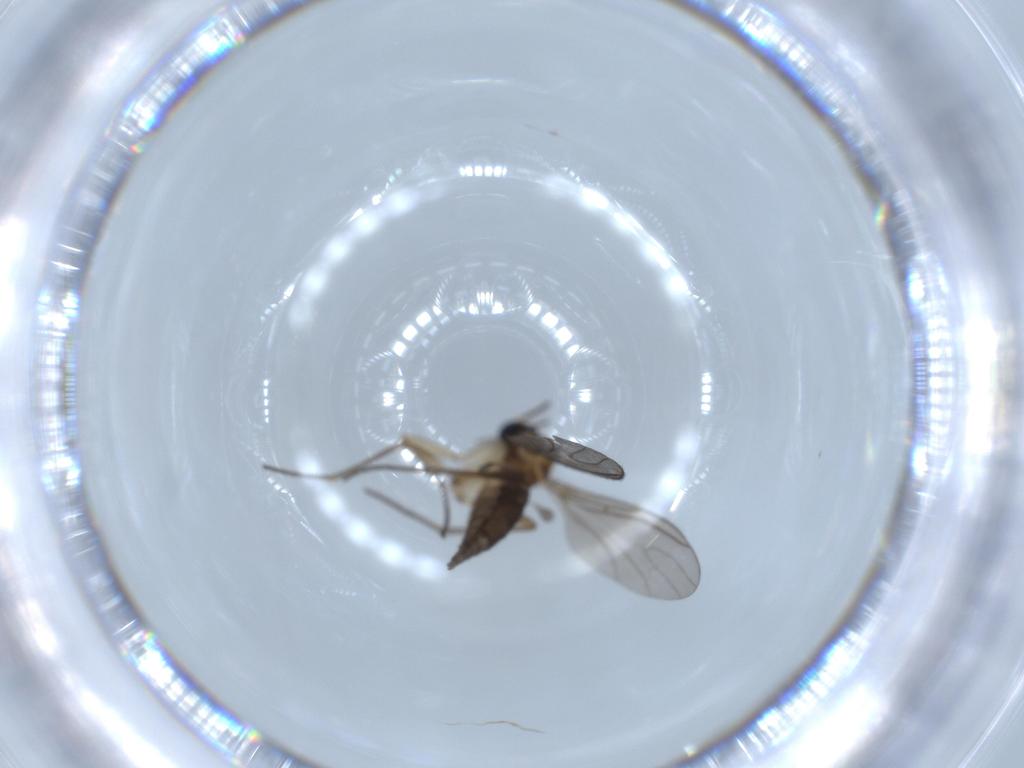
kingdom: Animalia
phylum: Arthropoda
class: Insecta
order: Diptera
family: Sciaridae
